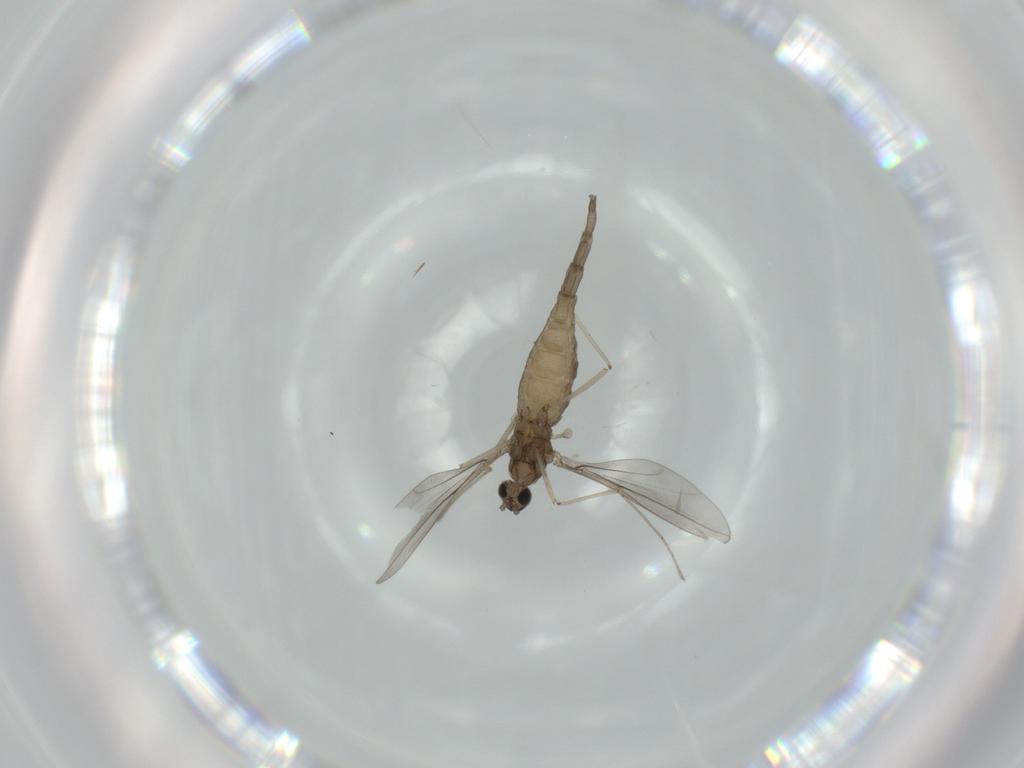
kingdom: Animalia
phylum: Arthropoda
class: Insecta
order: Diptera
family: Cecidomyiidae
